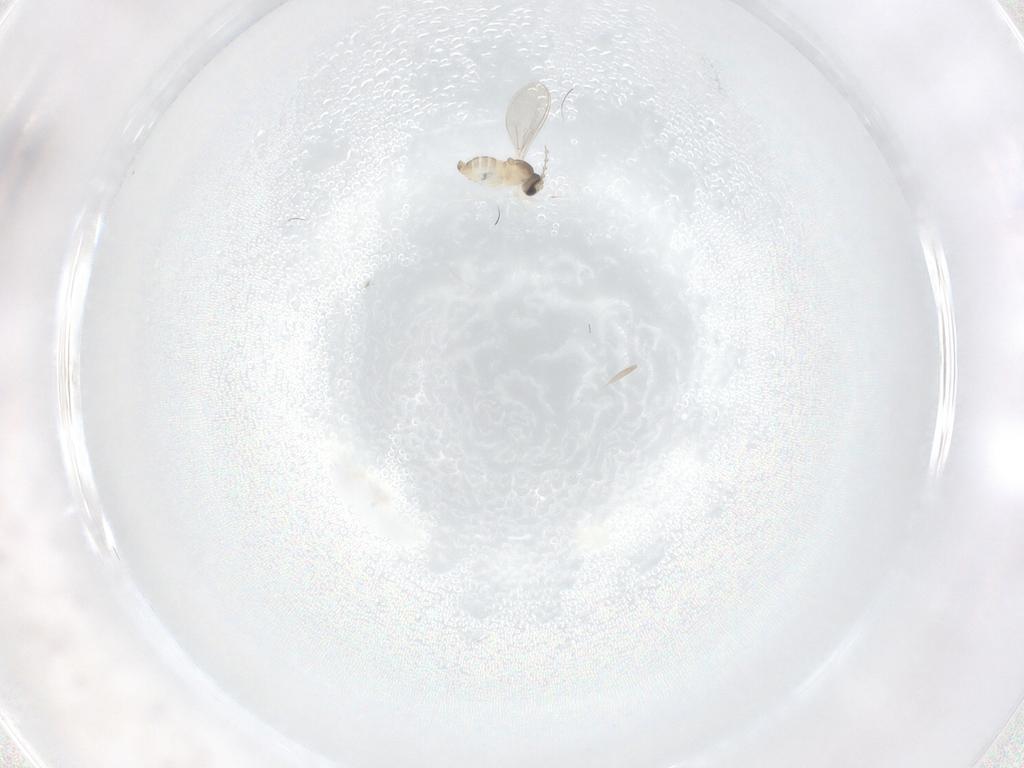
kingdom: Animalia
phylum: Arthropoda
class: Insecta
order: Diptera
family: Cecidomyiidae
